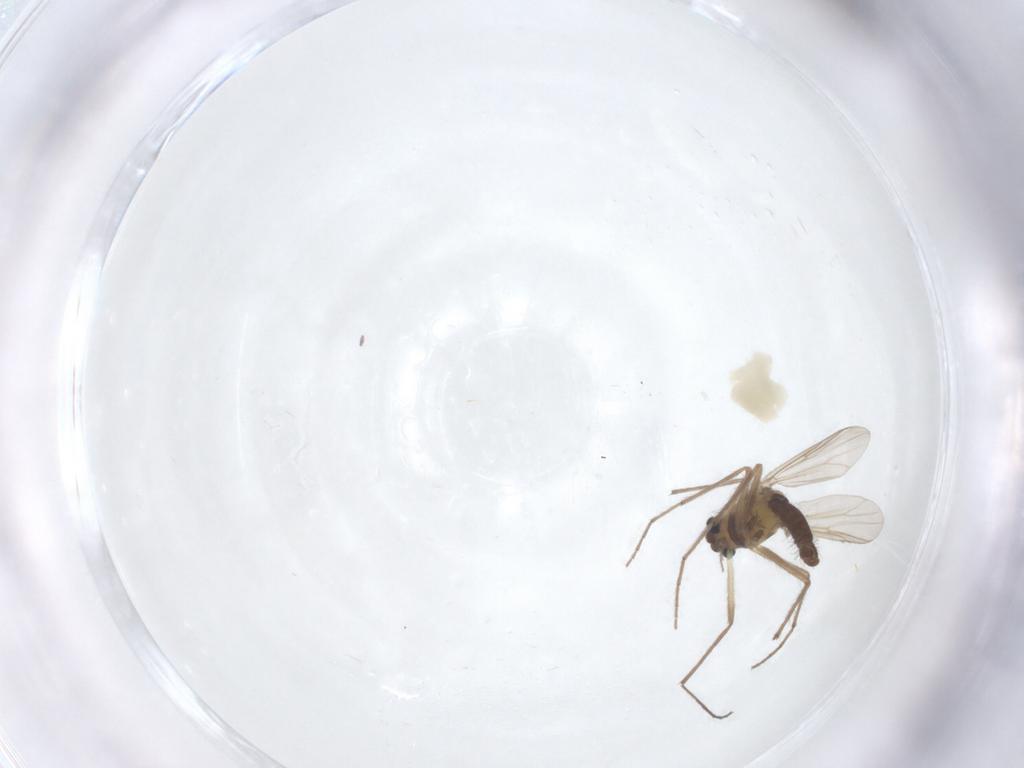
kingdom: Animalia
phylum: Arthropoda
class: Insecta
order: Diptera
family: Chironomidae
